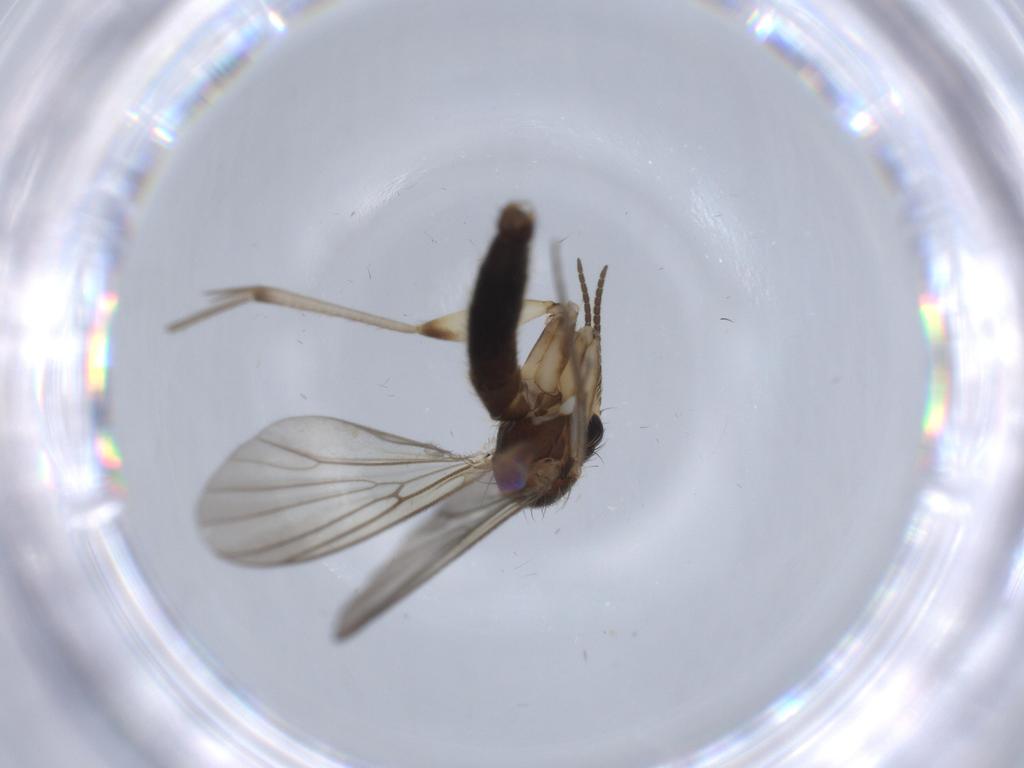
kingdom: Animalia
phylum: Arthropoda
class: Insecta
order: Diptera
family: Mycetophilidae
